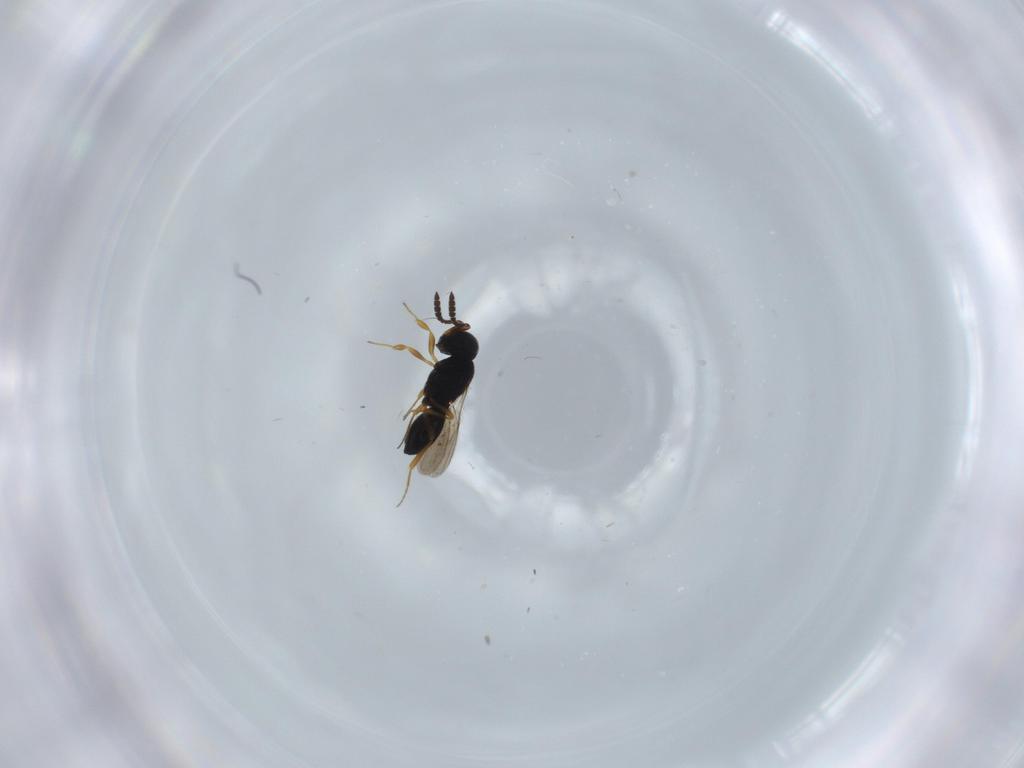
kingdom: Animalia
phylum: Arthropoda
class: Insecta
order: Hymenoptera
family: Scelionidae
